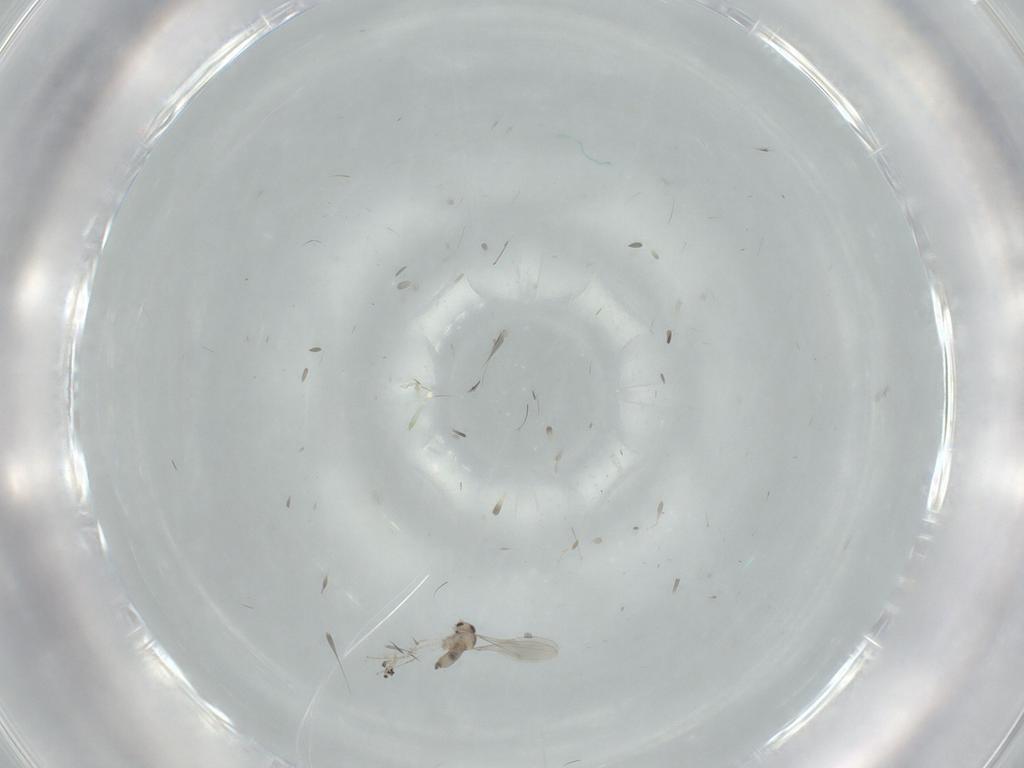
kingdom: Animalia
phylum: Arthropoda
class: Insecta
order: Diptera
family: Cecidomyiidae
